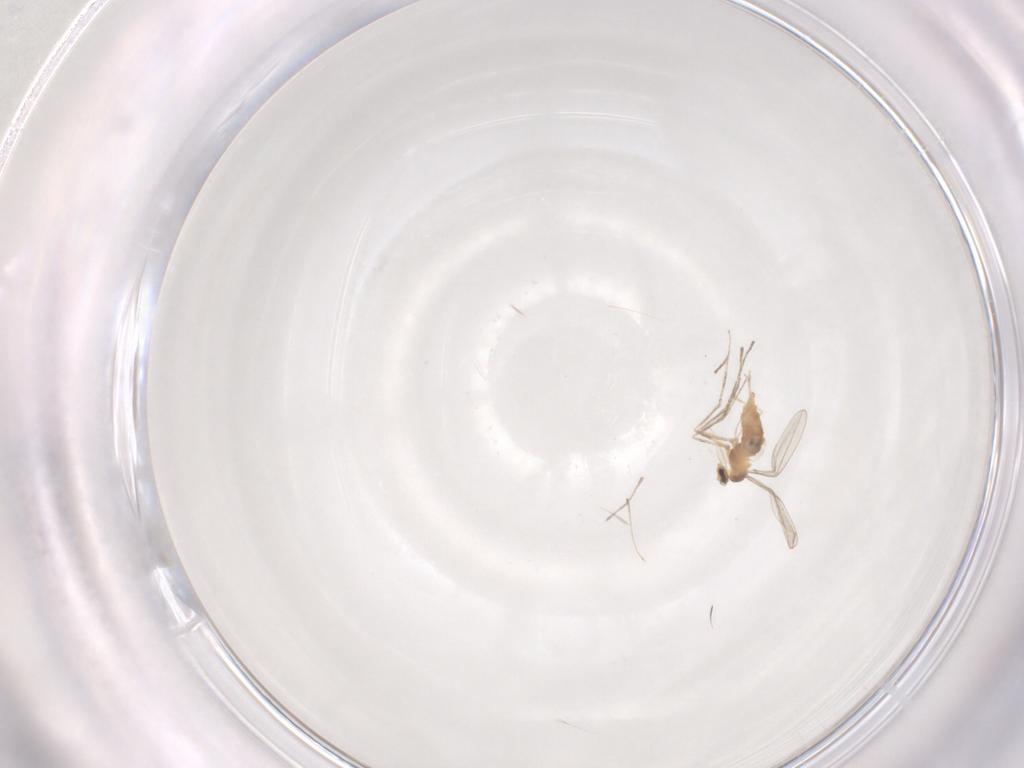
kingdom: Animalia
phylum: Arthropoda
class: Insecta
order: Diptera
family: Cecidomyiidae
